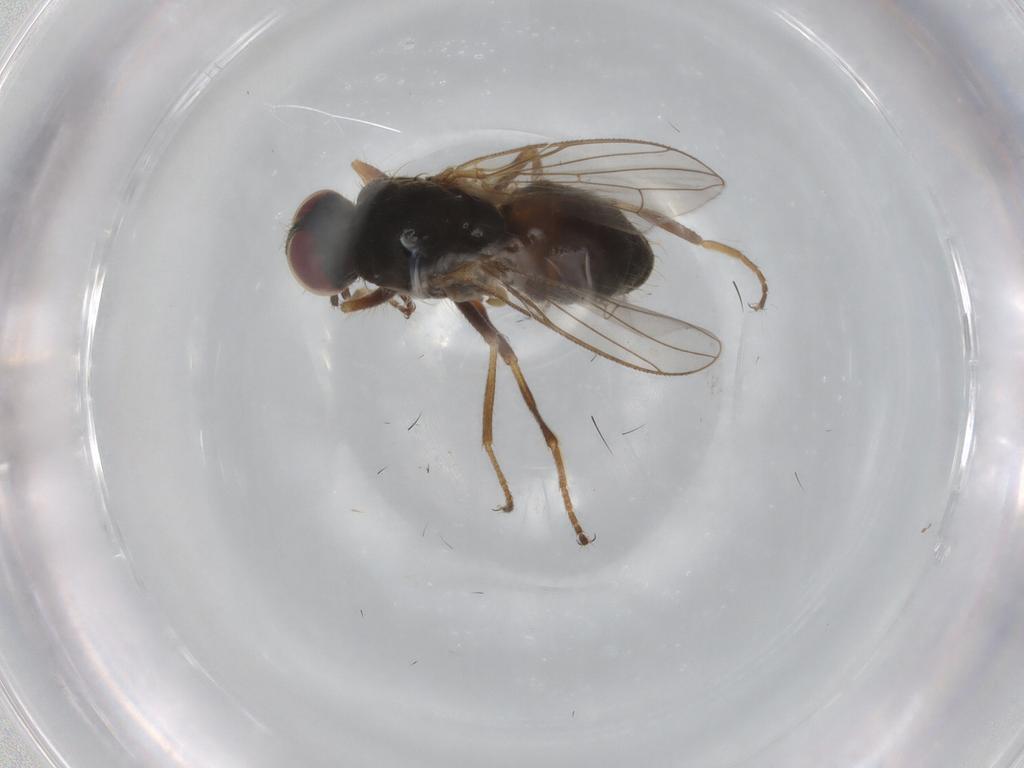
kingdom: Animalia
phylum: Arthropoda
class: Insecta
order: Diptera
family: Muscidae
